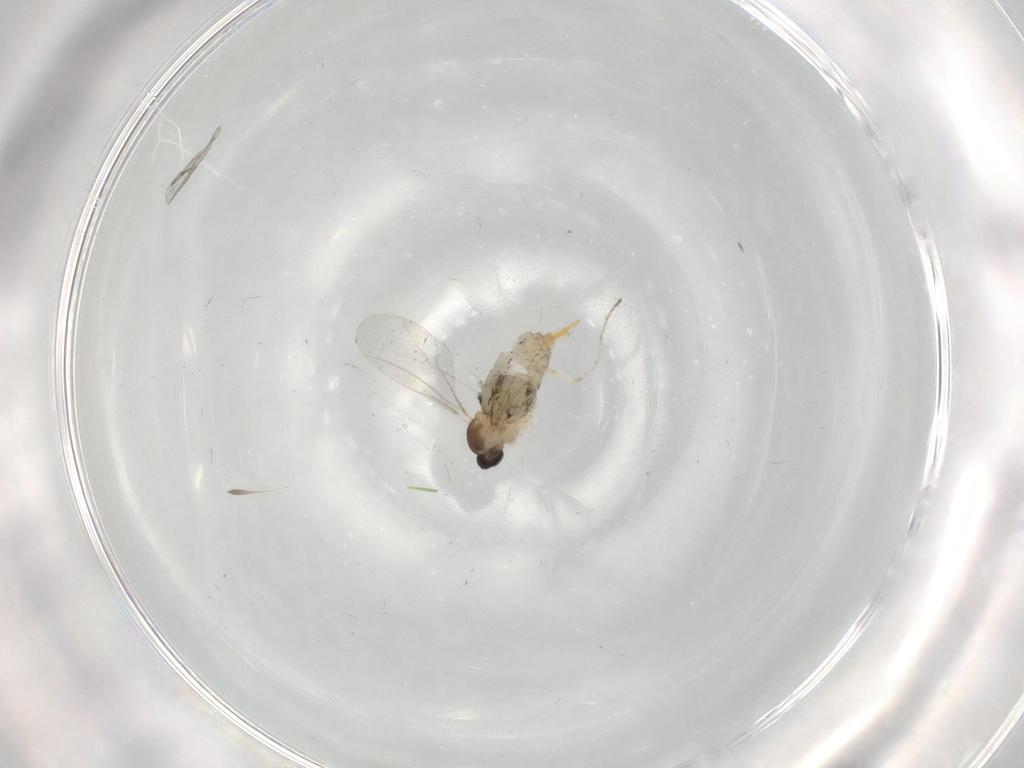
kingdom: Animalia
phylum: Arthropoda
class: Insecta
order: Diptera
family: Cecidomyiidae
